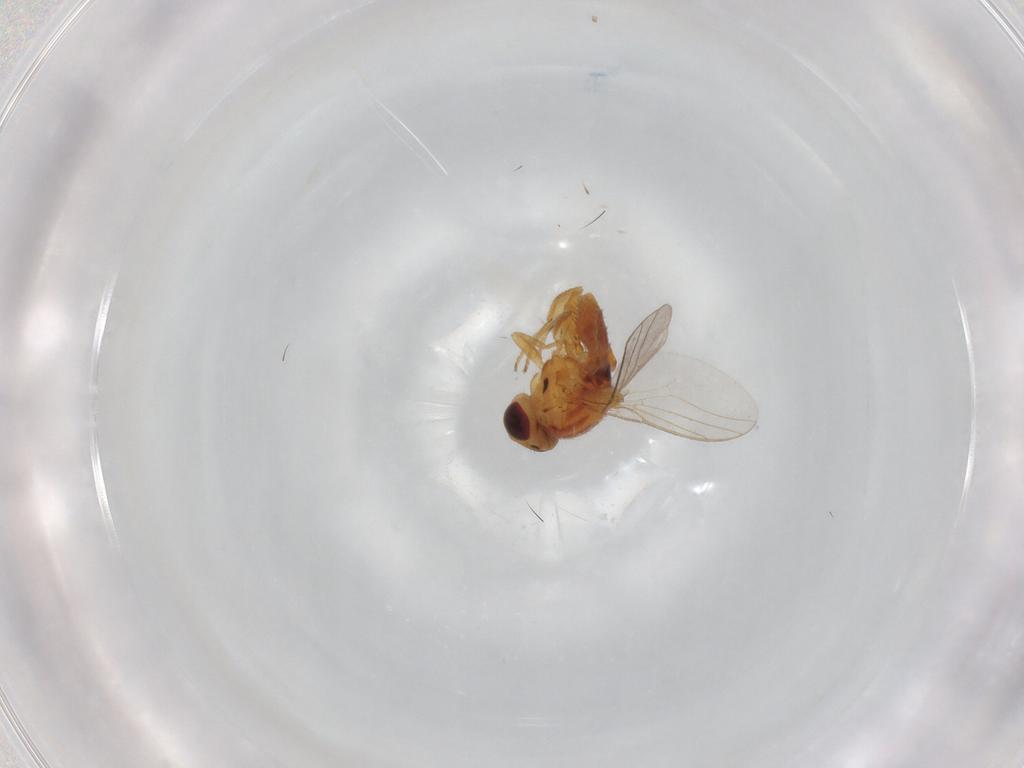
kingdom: Animalia
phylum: Arthropoda
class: Insecta
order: Diptera
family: Chloropidae
